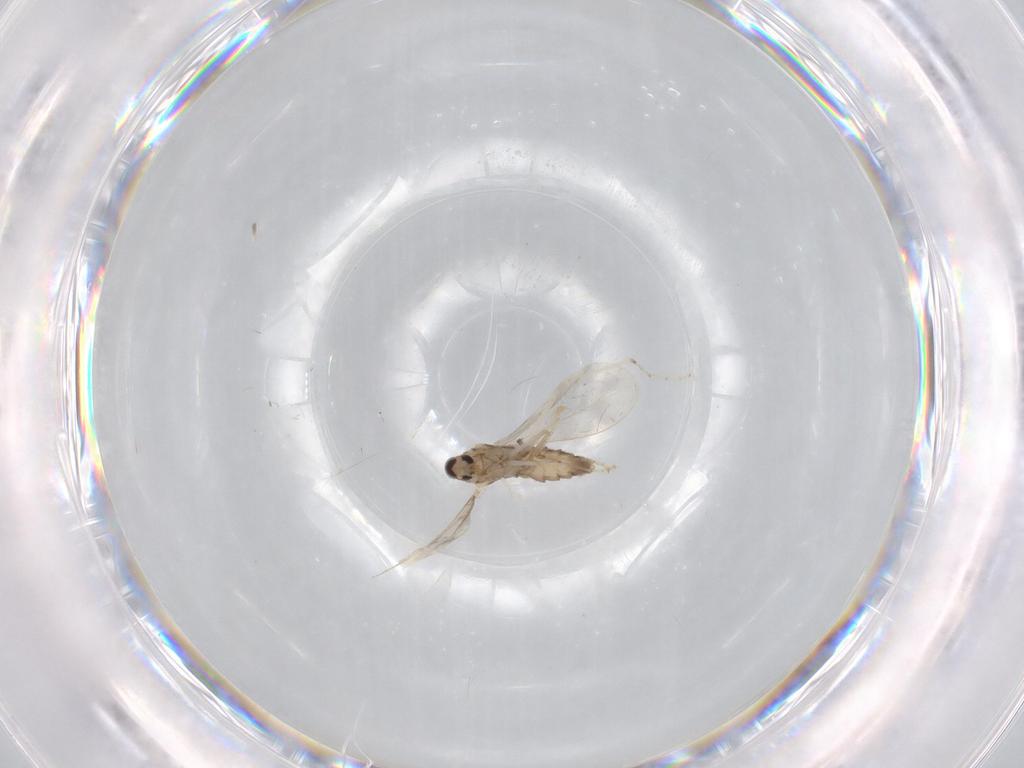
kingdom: Animalia
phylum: Arthropoda
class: Insecta
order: Diptera
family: Cecidomyiidae
